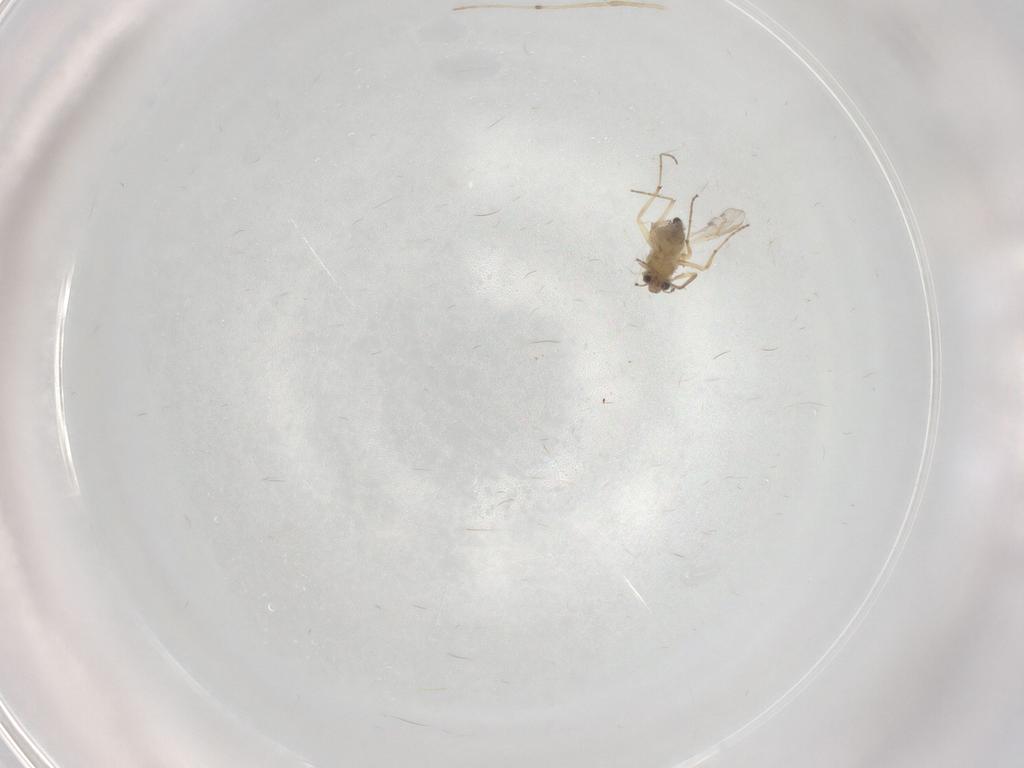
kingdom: Animalia
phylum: Arthropoda
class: Insecta
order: Diptera
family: Chironomidae
